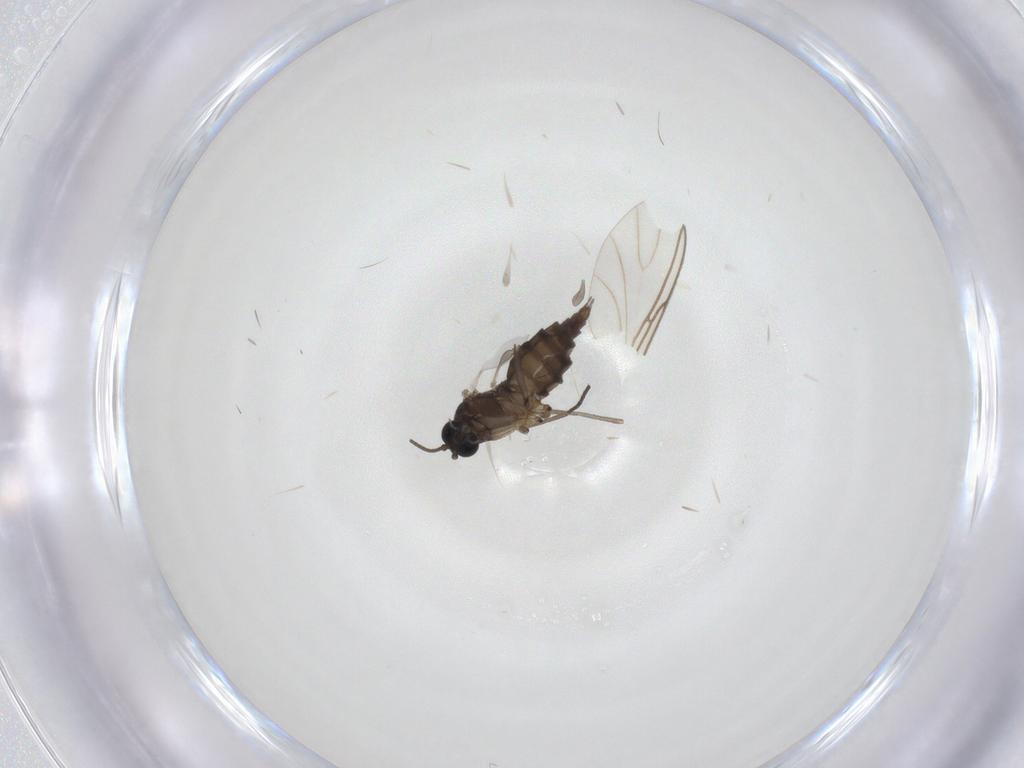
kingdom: Animalia
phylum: Arthropoda
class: Insecta
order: Diptera
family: Sciaridae
